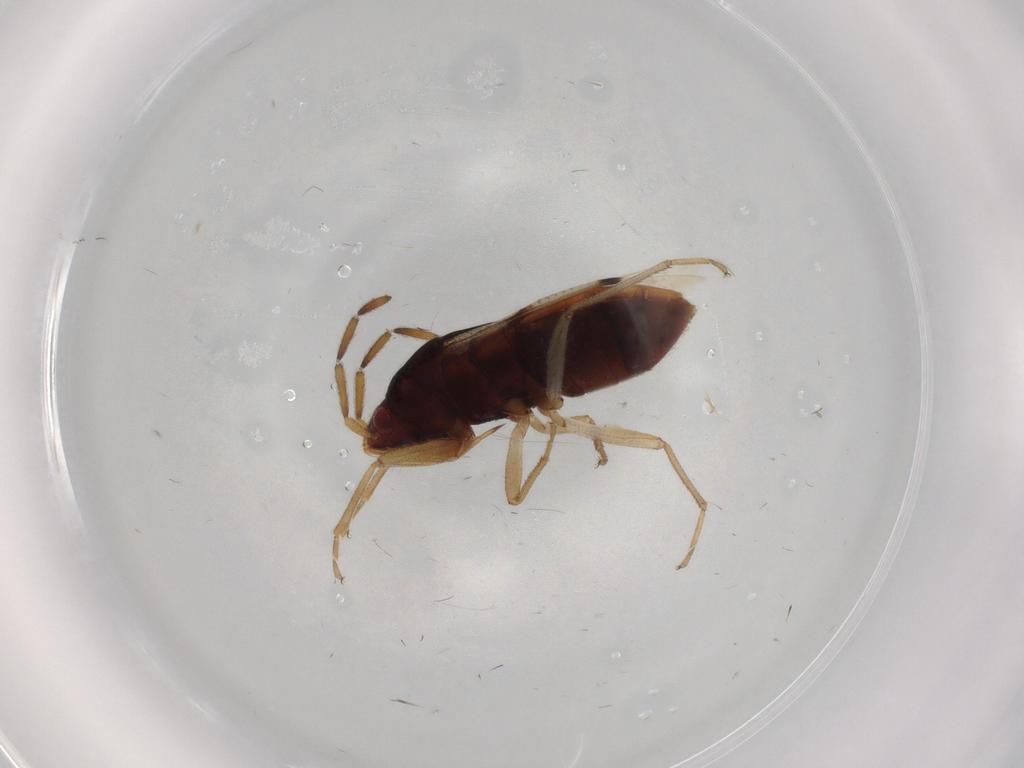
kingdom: Animalia
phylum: Arthropoda
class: Insecta
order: Hemiptera
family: Rhyparochromidae
